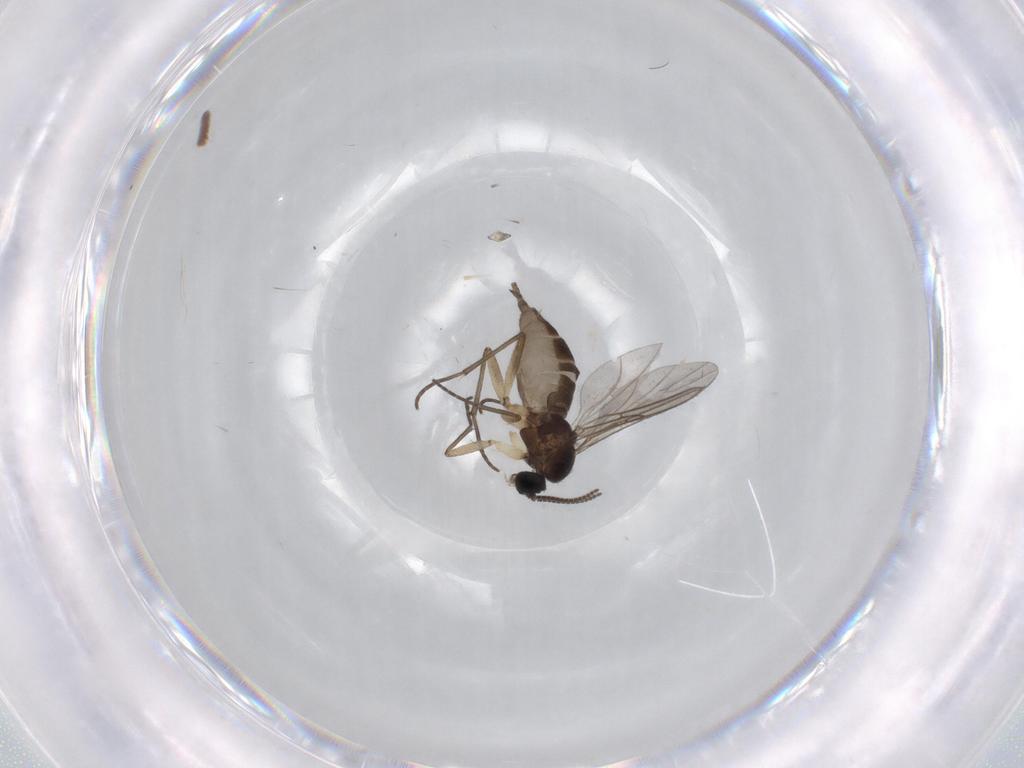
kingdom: Animalia
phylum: Arthropoda
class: Insecta
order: Diptera
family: Sciaridae
